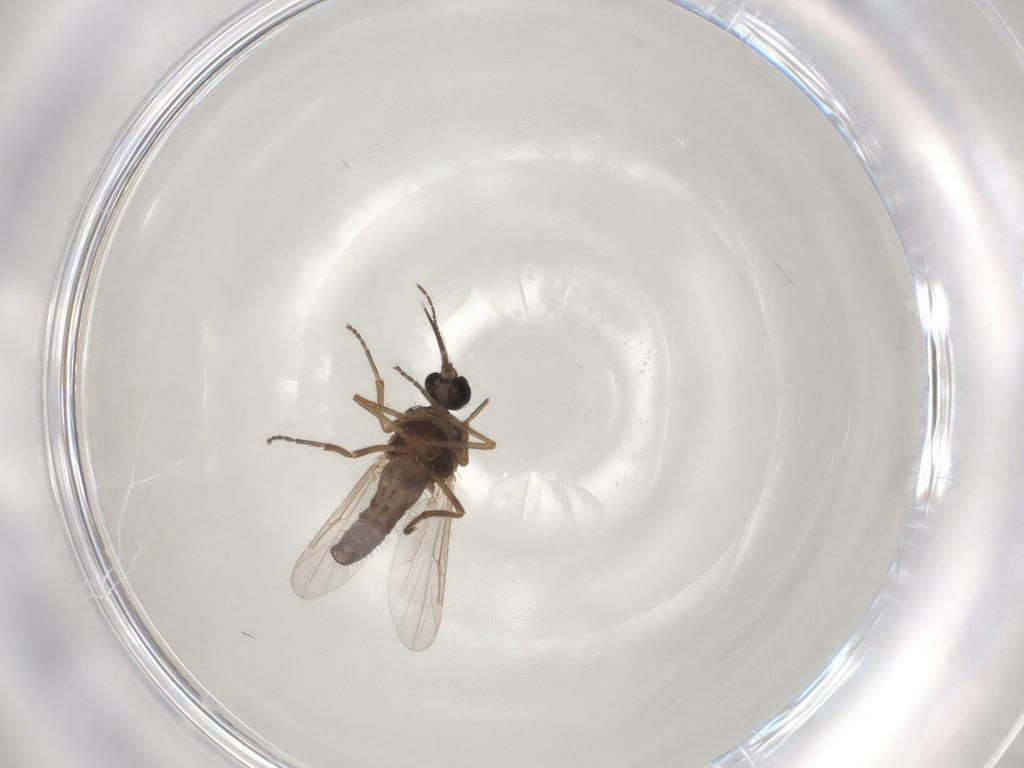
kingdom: Animalia
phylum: Arthropoda
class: Insecta
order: Diptera
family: Ceratopogonidae
